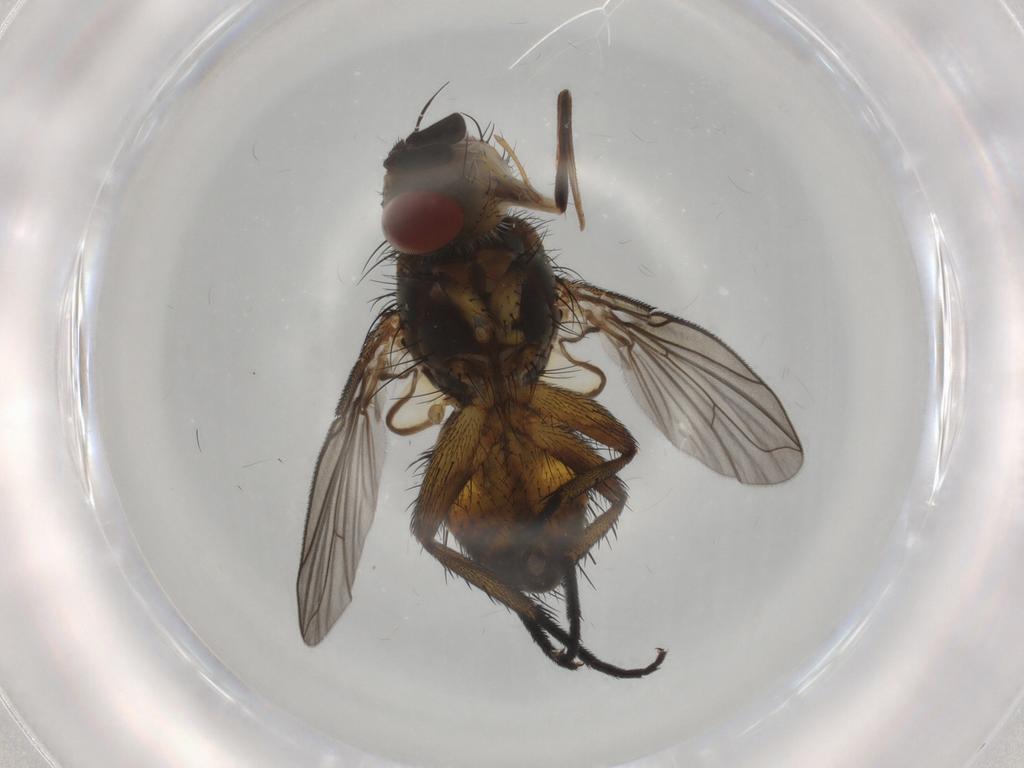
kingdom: Animalia
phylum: Arthropoda
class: Insecta
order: Diptera
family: Tachinidae
